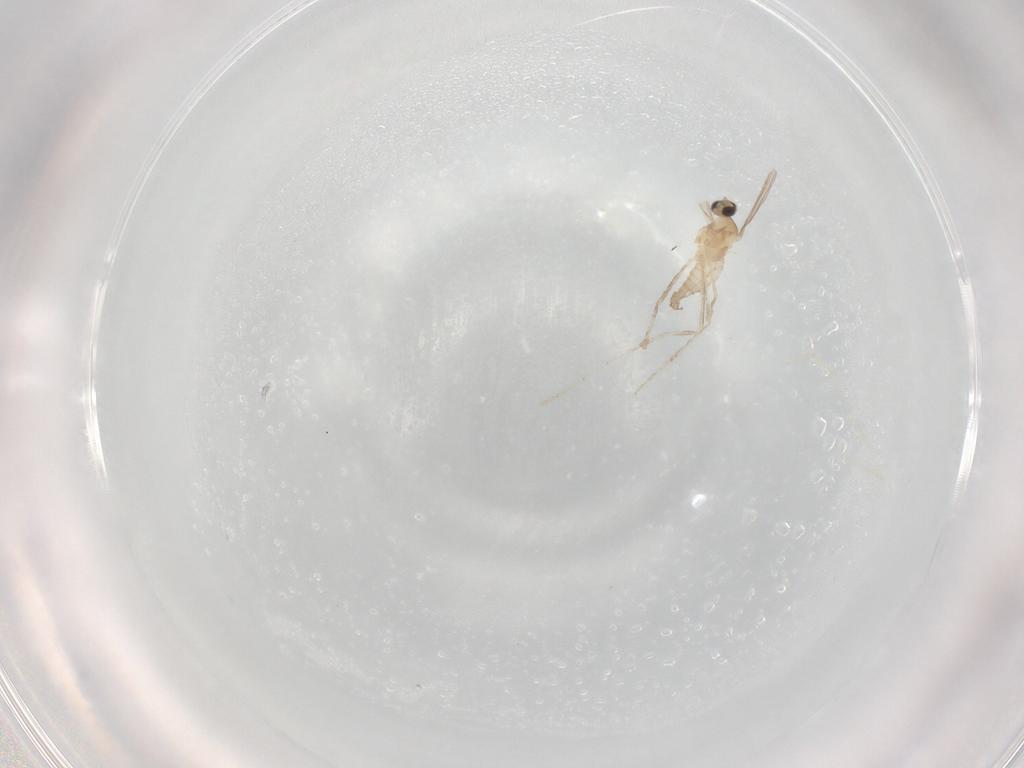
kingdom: Animalia
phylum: Arthropoda
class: Insecta
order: Diptera
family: Cecidomyiidae
